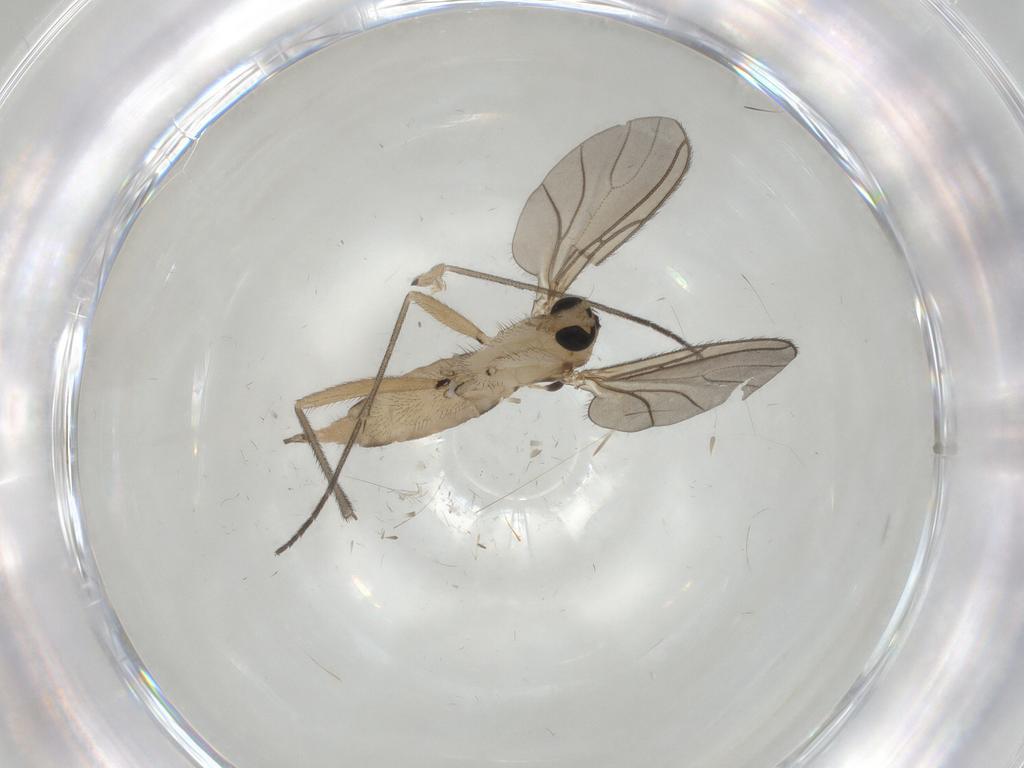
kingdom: Animalia
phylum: Arthropoda
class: Insecta
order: Diptera
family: Sciaridae
